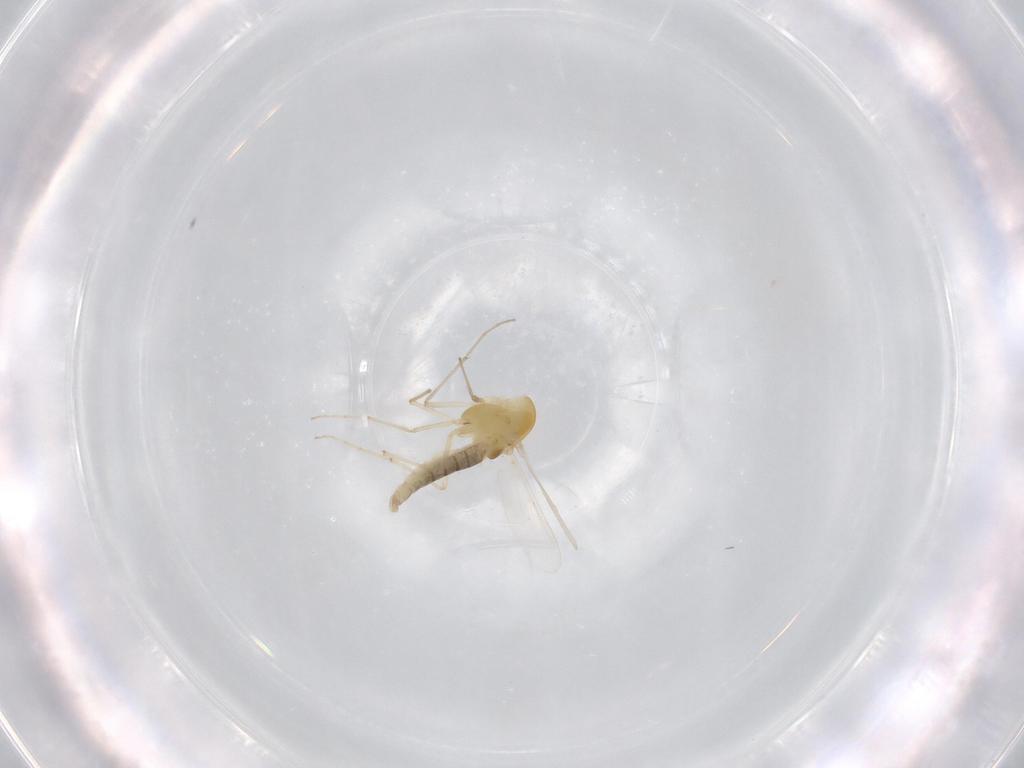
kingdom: Animalia
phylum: Arthropoda
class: Insecta
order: Diptera
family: Chironomidae
